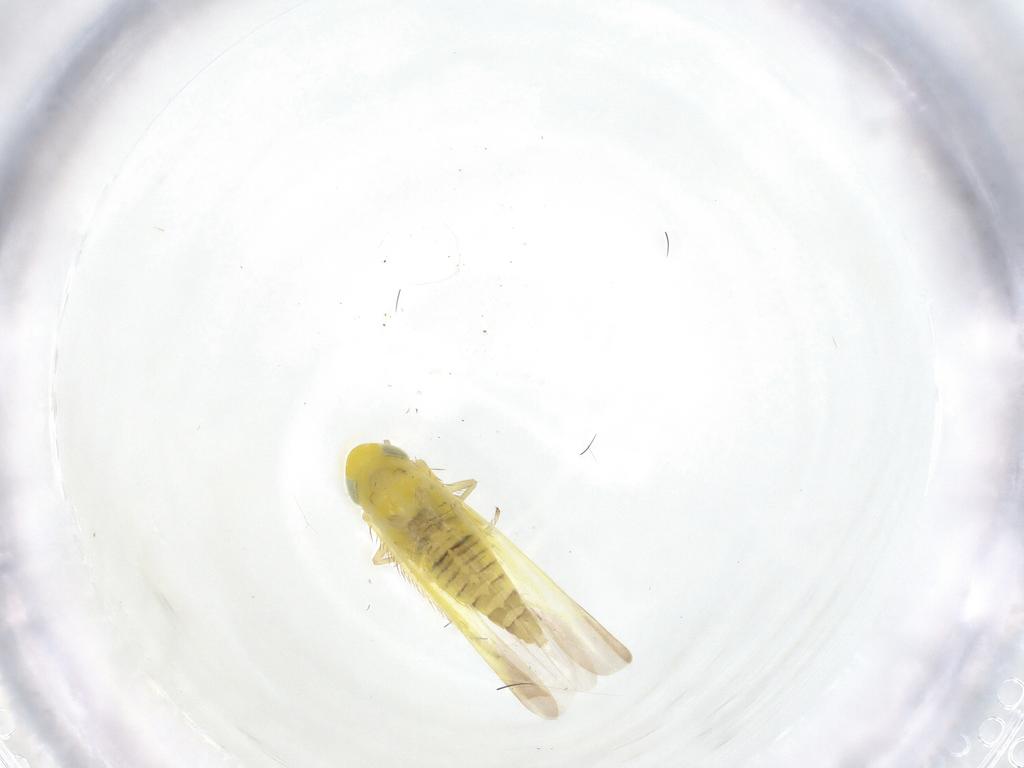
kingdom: Animalia
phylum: Arthropoda
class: Insecta
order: Hemiptera
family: Cicadellidae
